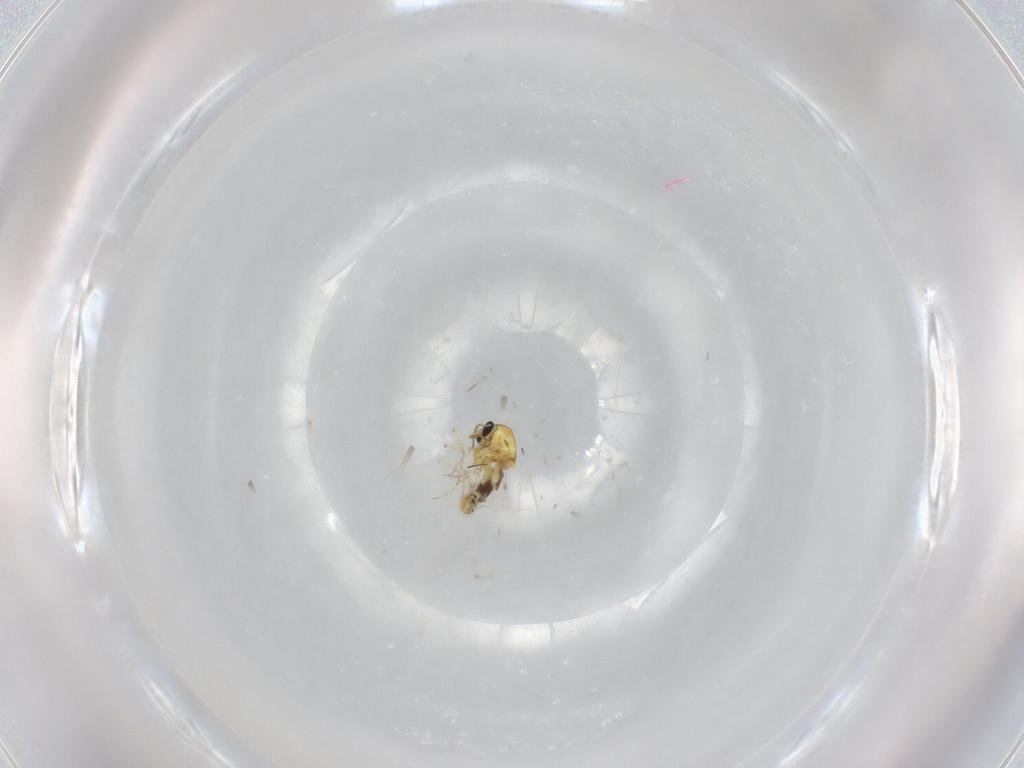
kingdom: Animalia
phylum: Arthropoda
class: Insecta
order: Diptera
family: Ceratopogonidae
